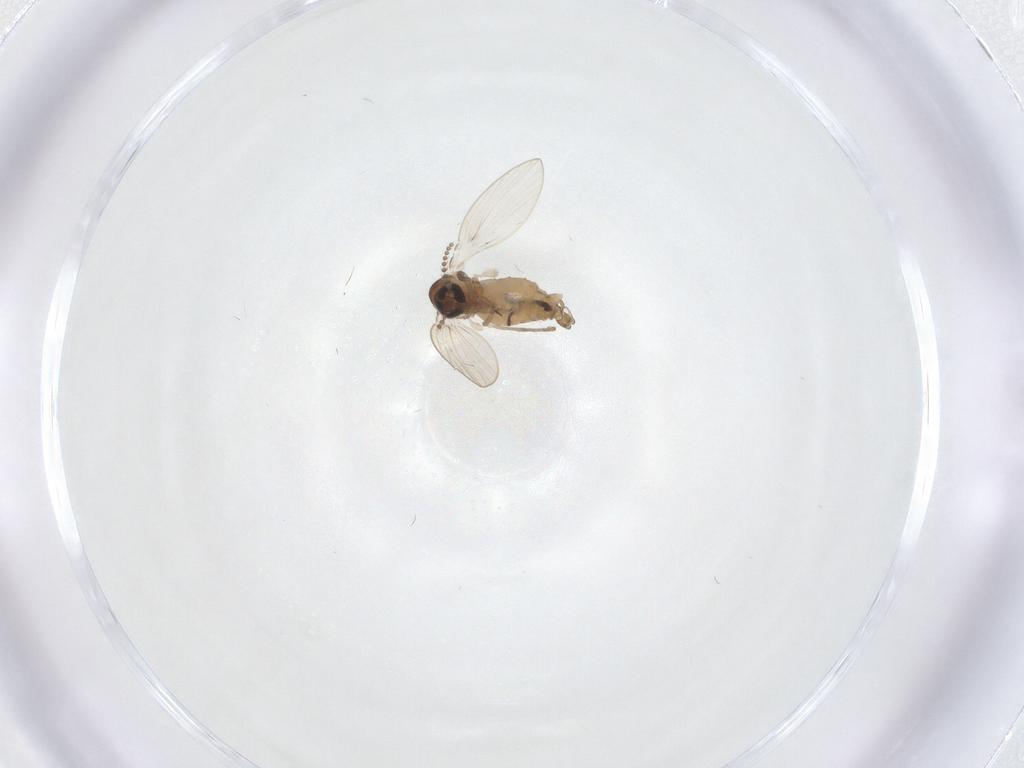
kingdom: Animalia
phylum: Arthropoda
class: Insecta
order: Diptera
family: Psychodidae
